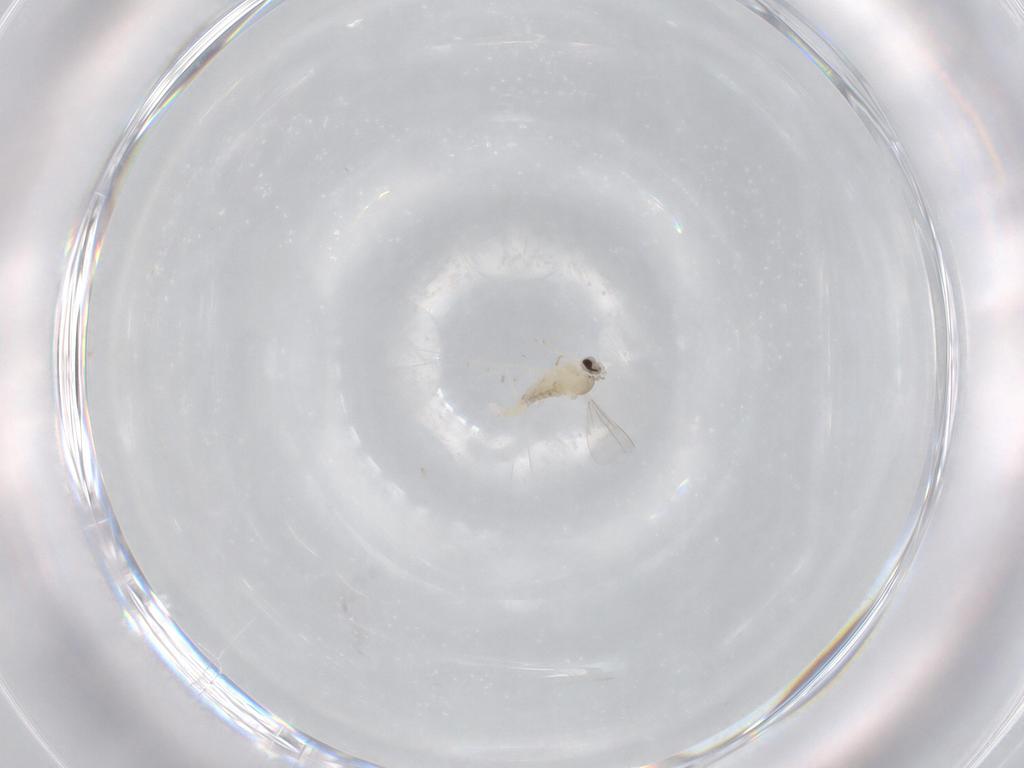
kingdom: Animalia
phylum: Arthropoda
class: Insecta
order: Diptera
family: Cecidomyiidae
